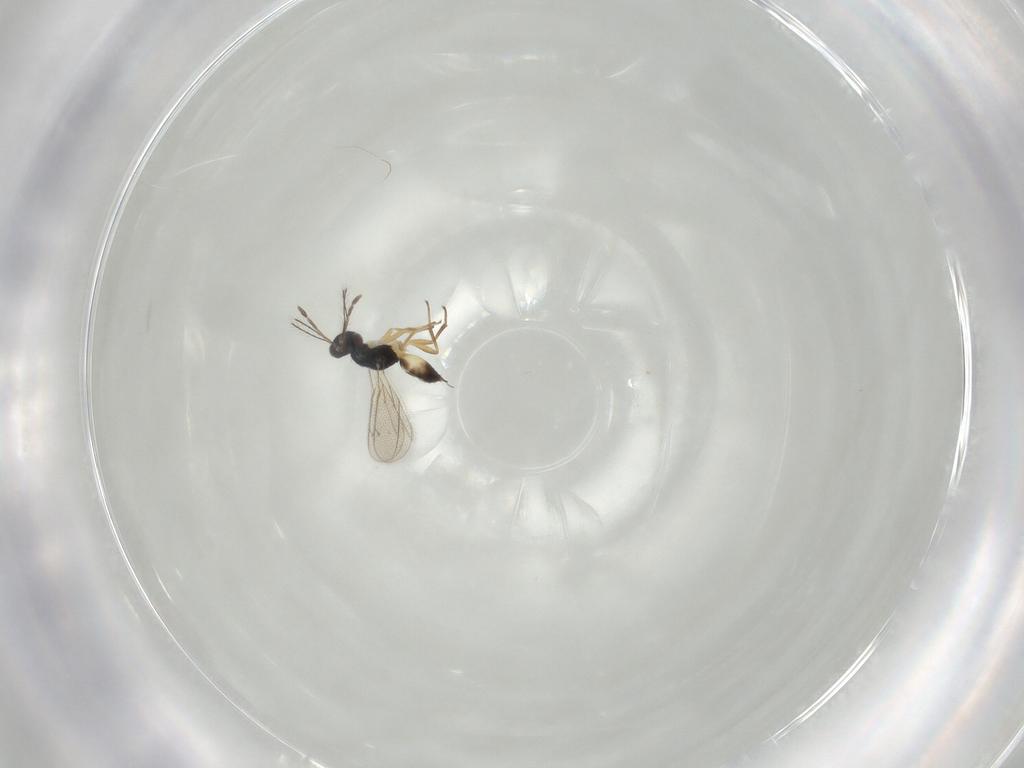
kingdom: Animalia
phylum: Arthropoda
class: Insecta
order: Hymenoptera
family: Eulophidae
